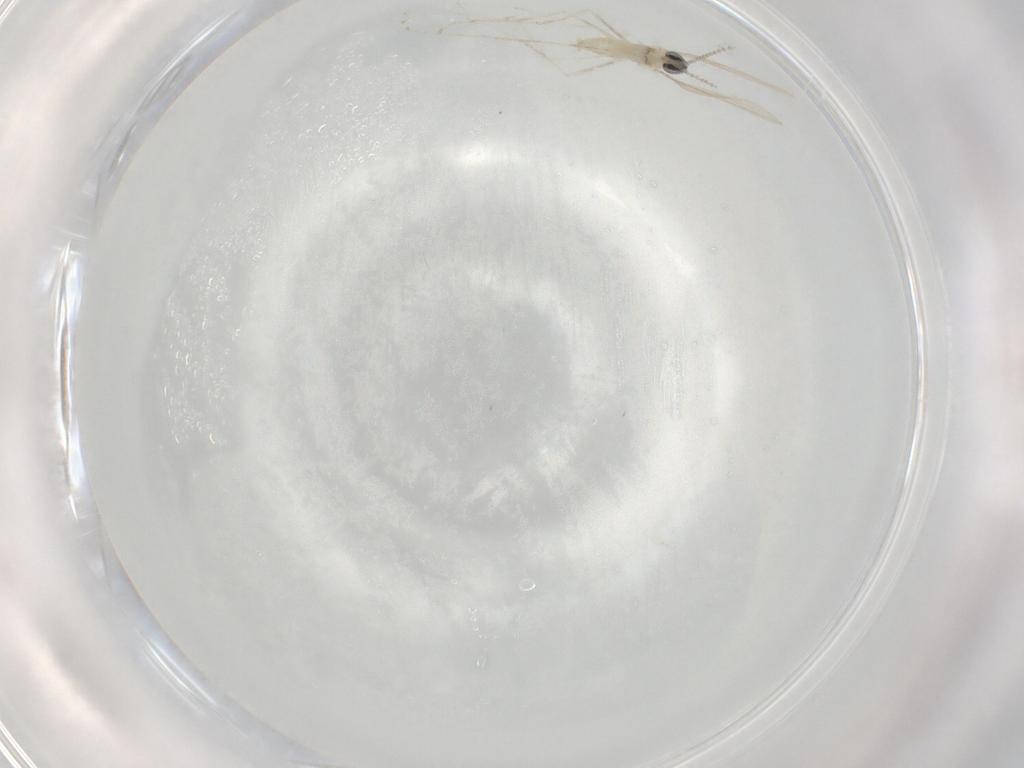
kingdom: Animalia
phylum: Arthropoda
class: Insecta
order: Diptera
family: Cecidomyiidae
